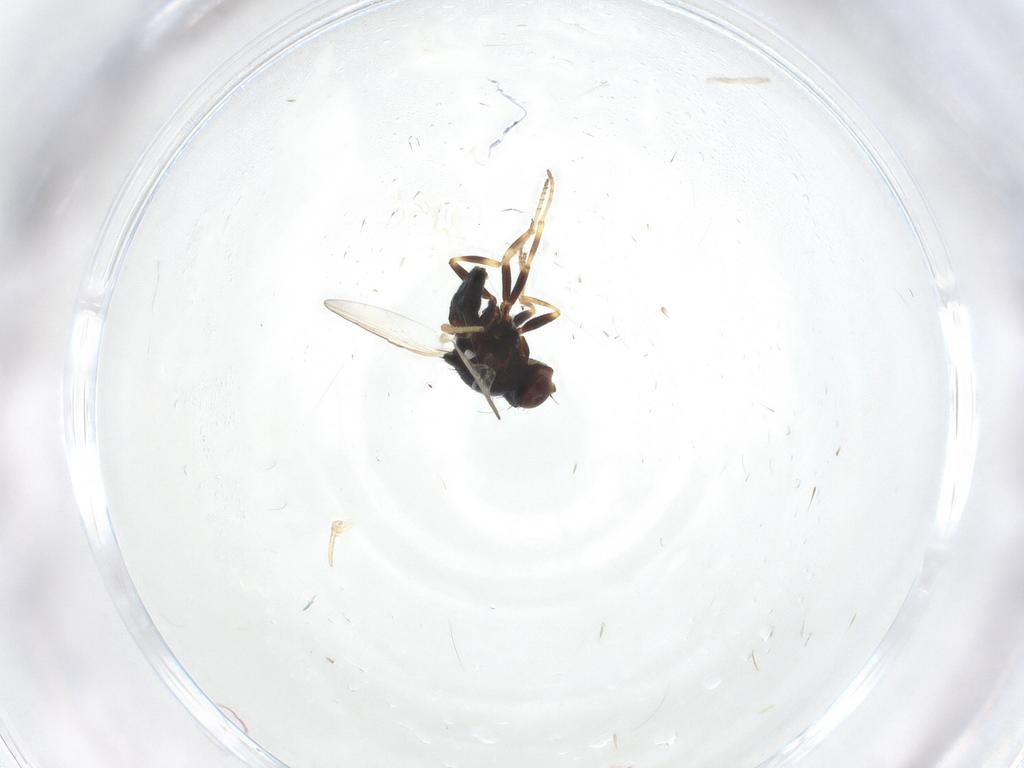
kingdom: Animalia
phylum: Arthropoda
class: Insecta
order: Diptera
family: Chloropidae
